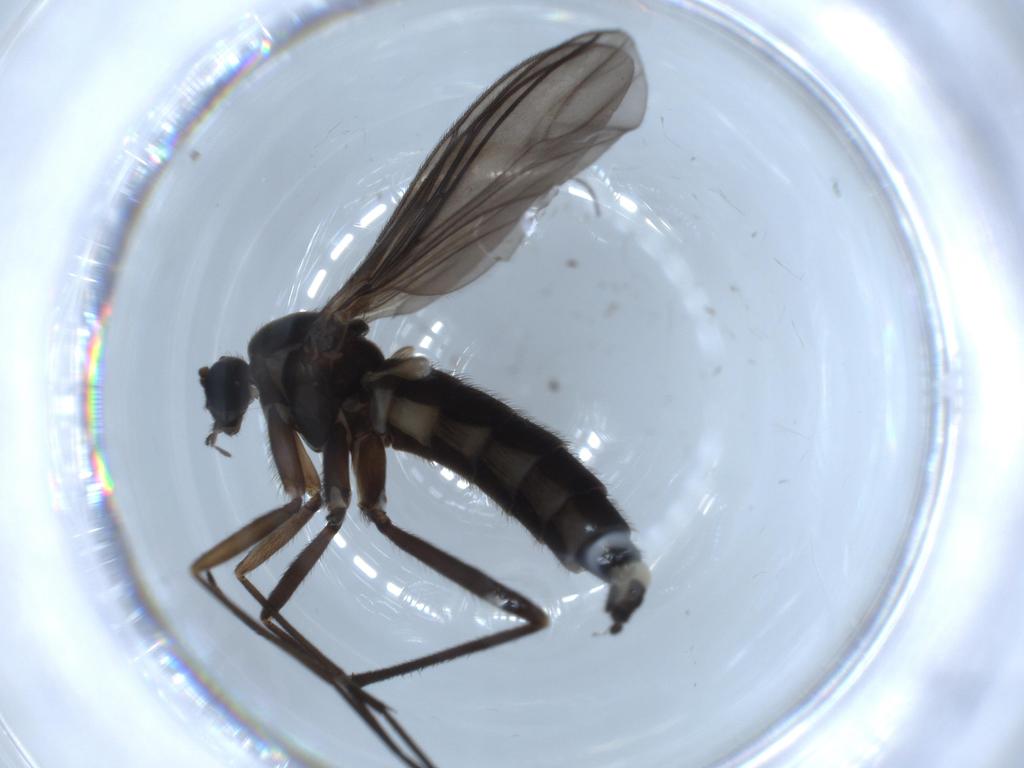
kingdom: Animalia
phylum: Arthropoda
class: Insecta
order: Diptera
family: Sciaridae
